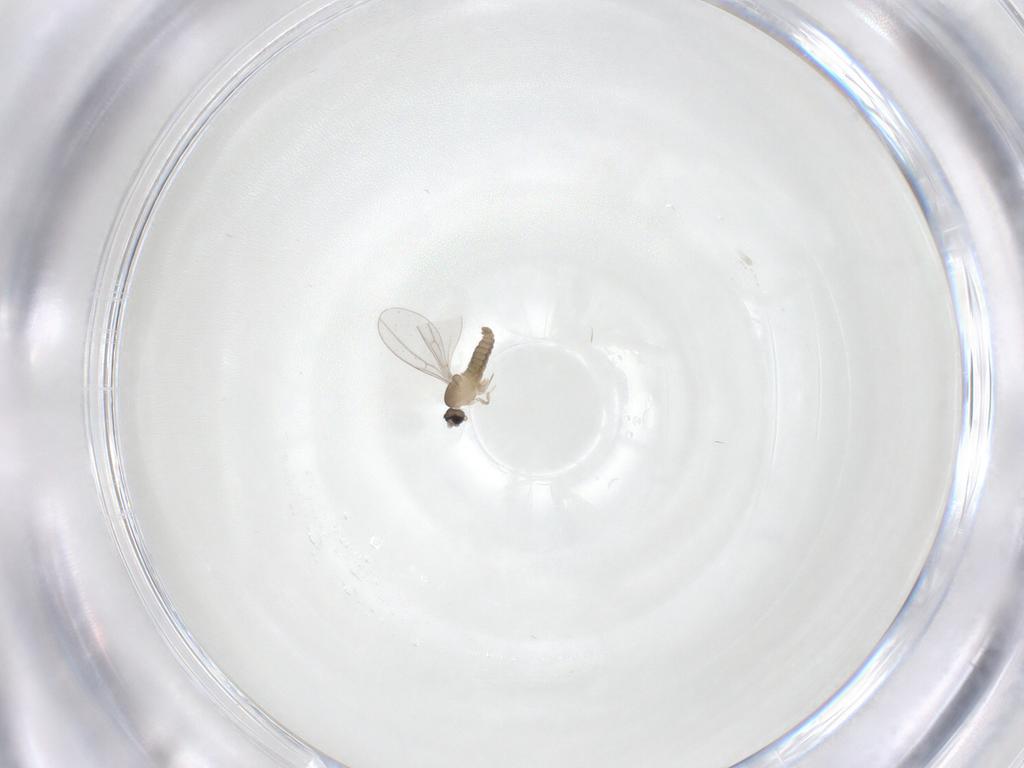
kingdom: Animalia
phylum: Arthropoda
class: Insecta
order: Diptera
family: Cecidomyiidae
